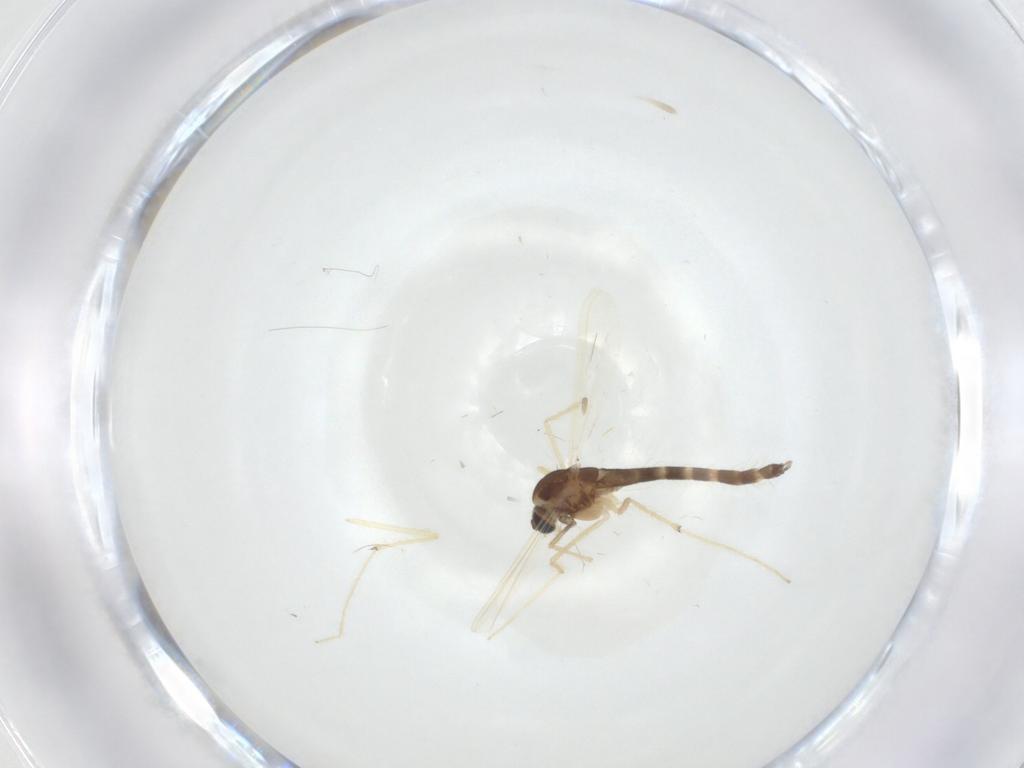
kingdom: Animalia
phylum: Arthropoda
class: Insecta
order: Diptera
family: Chironomidae
